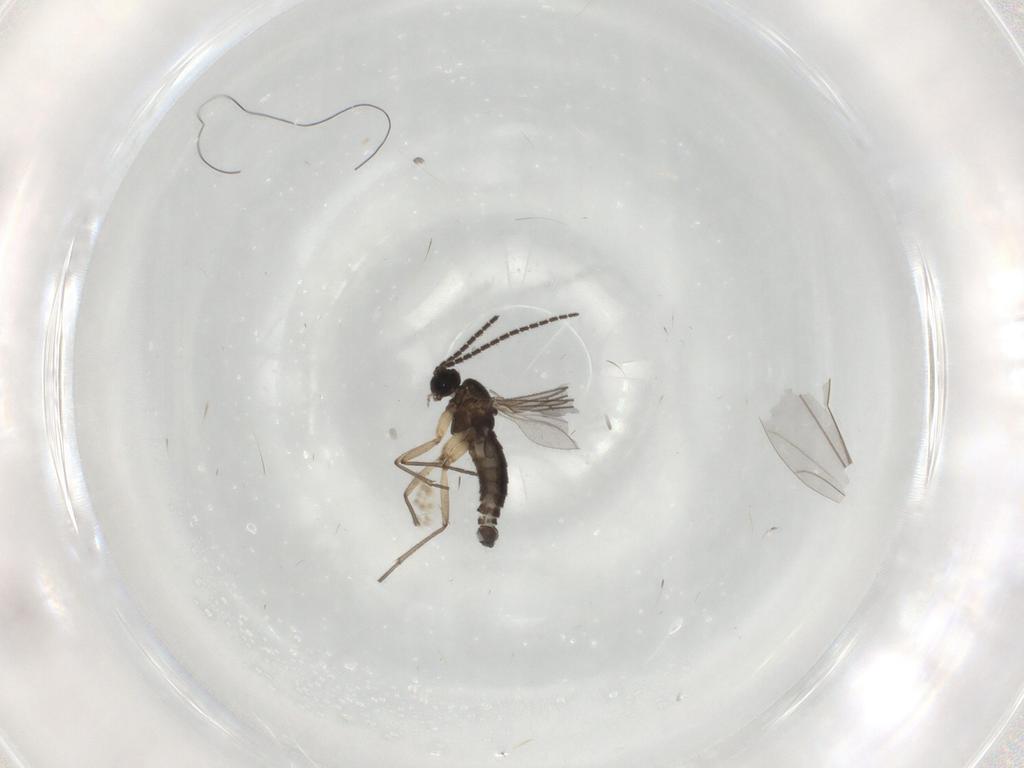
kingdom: Animalia
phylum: Arthropoda
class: Insecta
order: Diptera
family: Sciaridae
